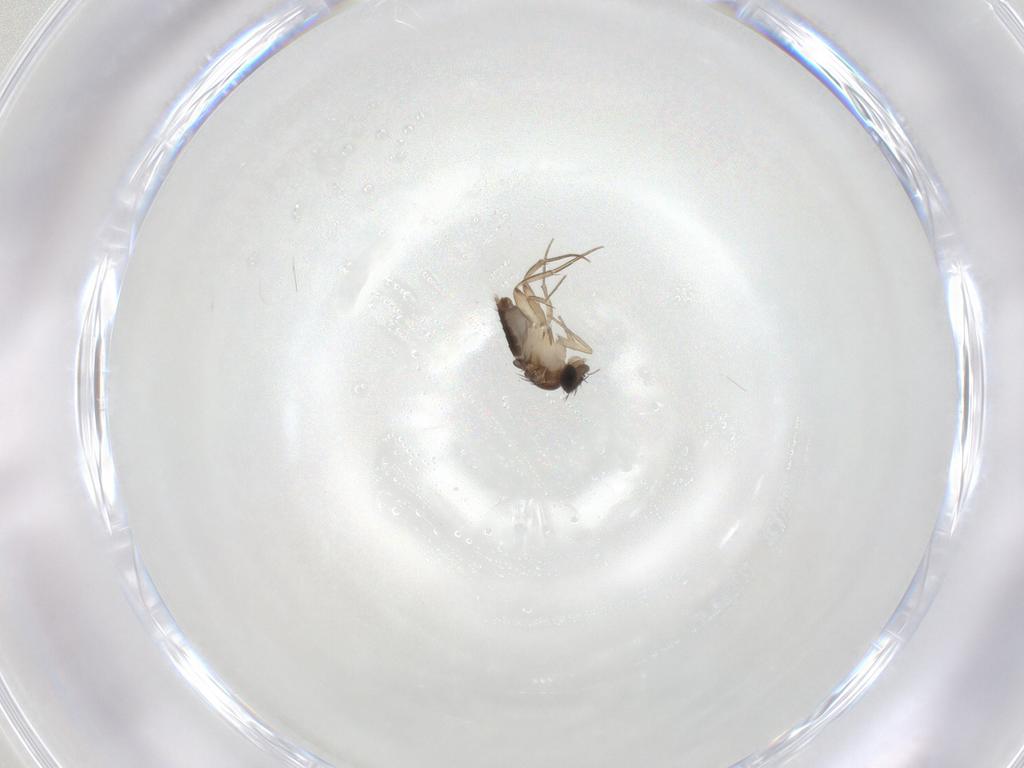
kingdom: Animalia
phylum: Arthropoda
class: Insecta
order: Diptera
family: Phoridae
